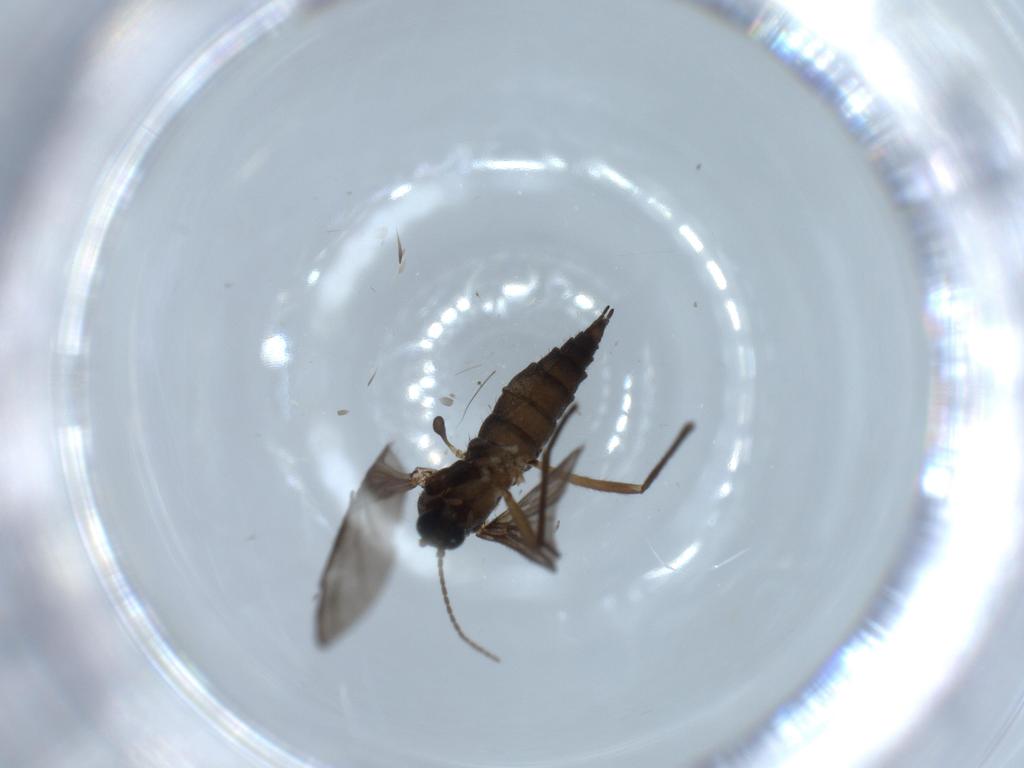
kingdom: Animalia
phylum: Arthropoda
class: Insecta
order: Diptera
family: Sciaridae
